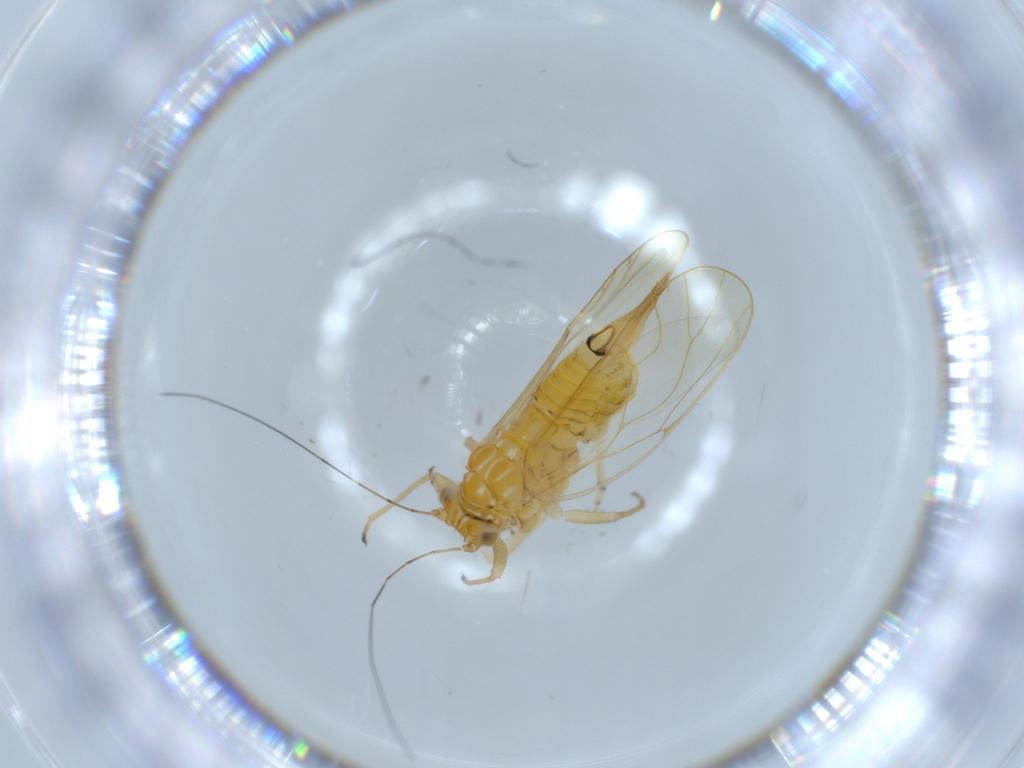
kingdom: Animalia
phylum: Arthropoda
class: Insecta
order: Hemiptera
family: Psyllidae
